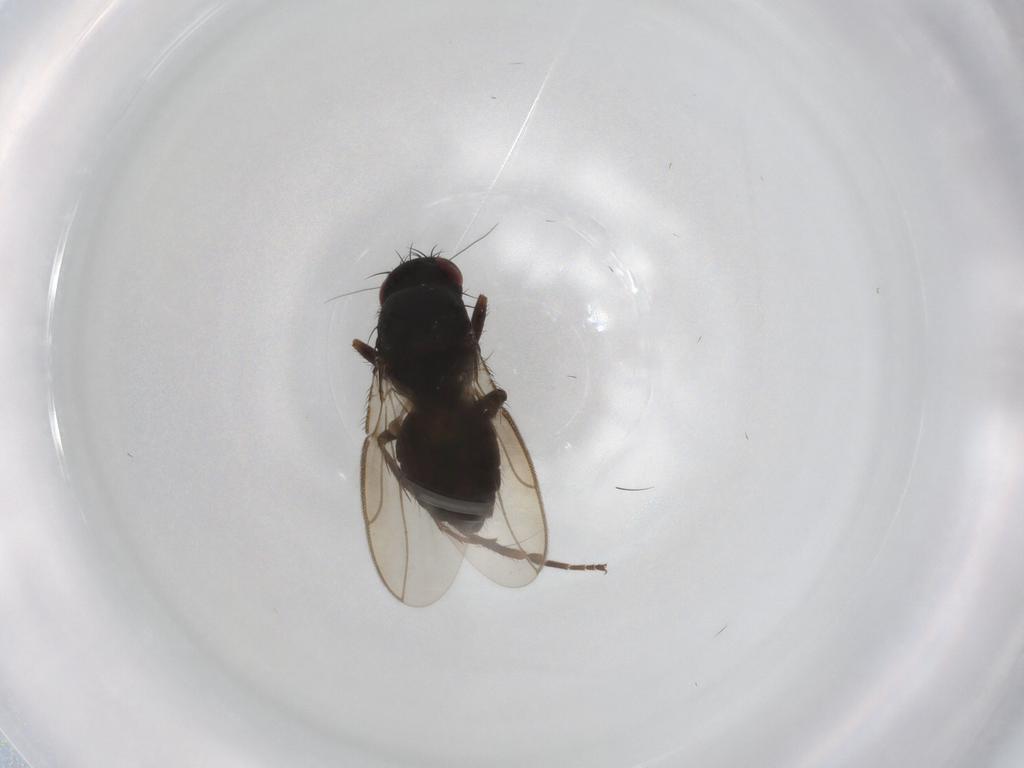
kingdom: Animalia
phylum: Arthropoda
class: Insecta
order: Diptera
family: Sphaeroceridae
